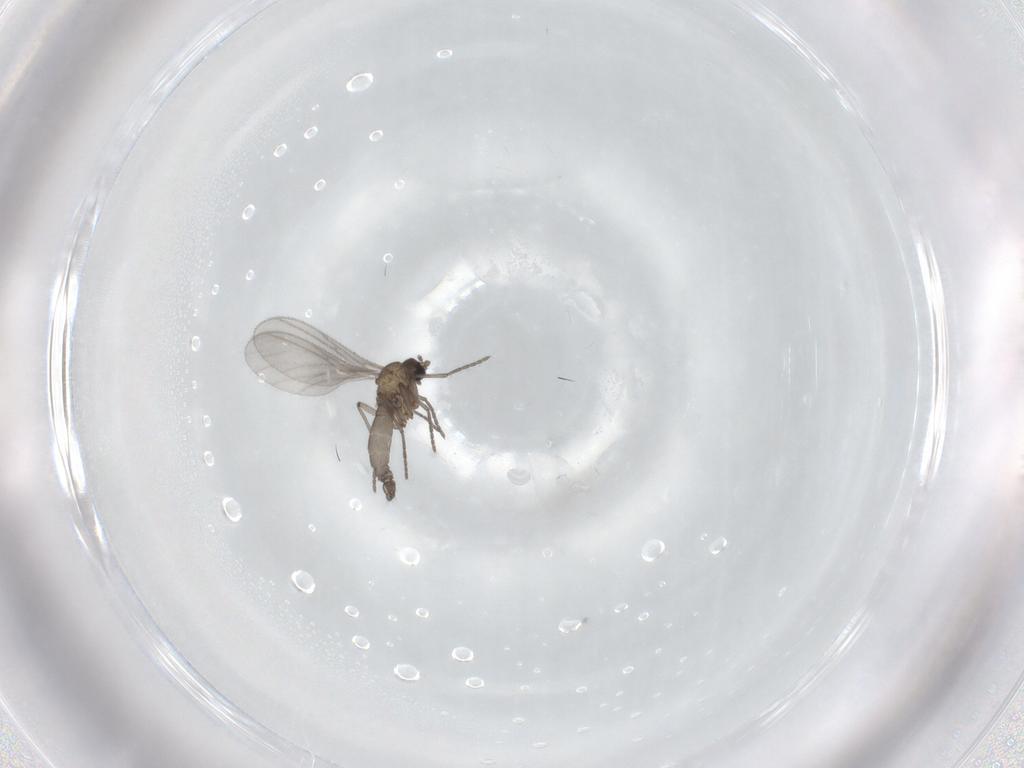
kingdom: Animalia
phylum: Arthropoda
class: Insecta
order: Diptera
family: Sciaridae
